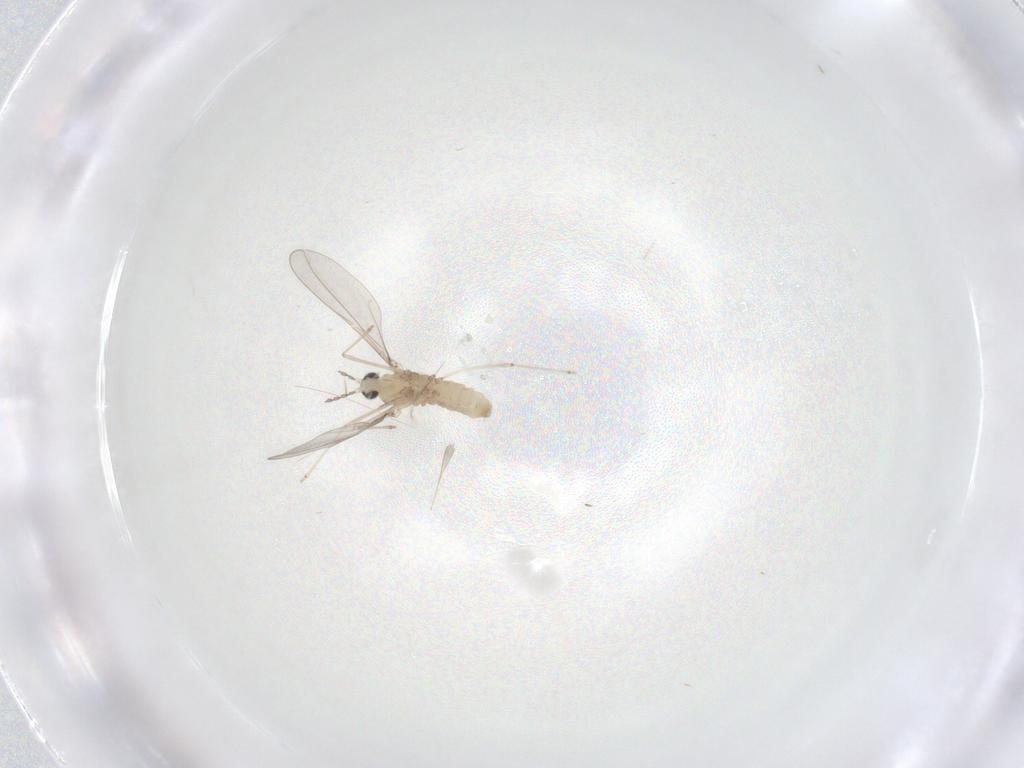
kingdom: Animalia
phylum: Arthropoda
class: Insecta
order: Diptera
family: Cecidomyiidae
